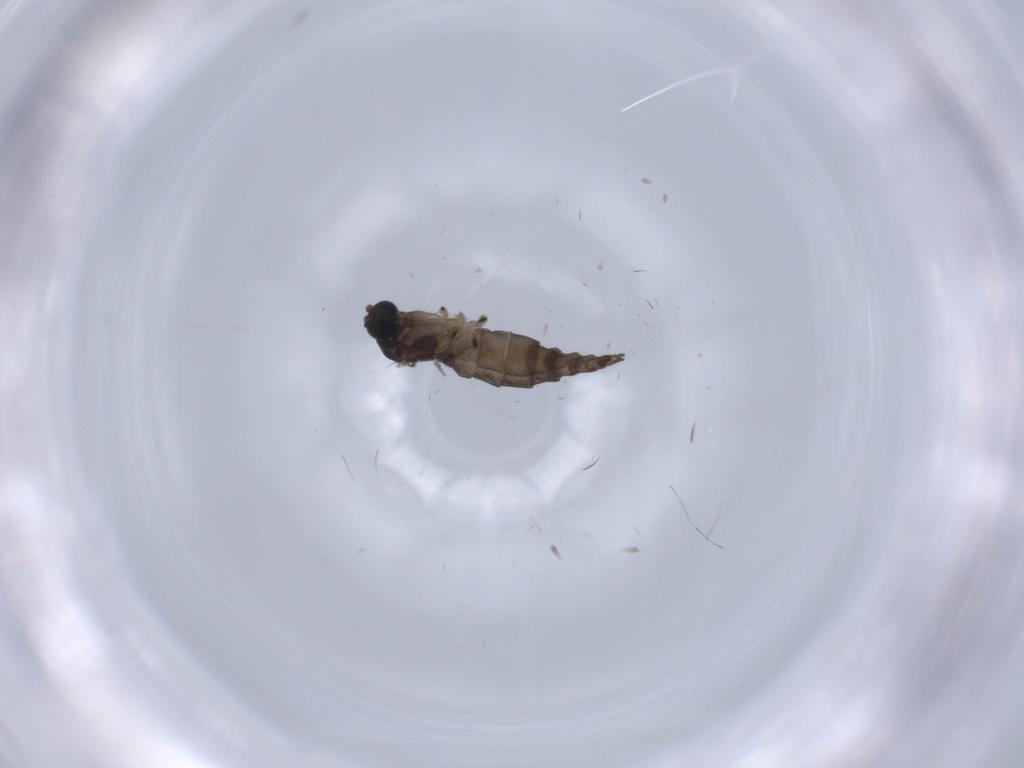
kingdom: Animalia
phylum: Arthropoda
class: Insecta
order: Diptera
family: Sciaridae
